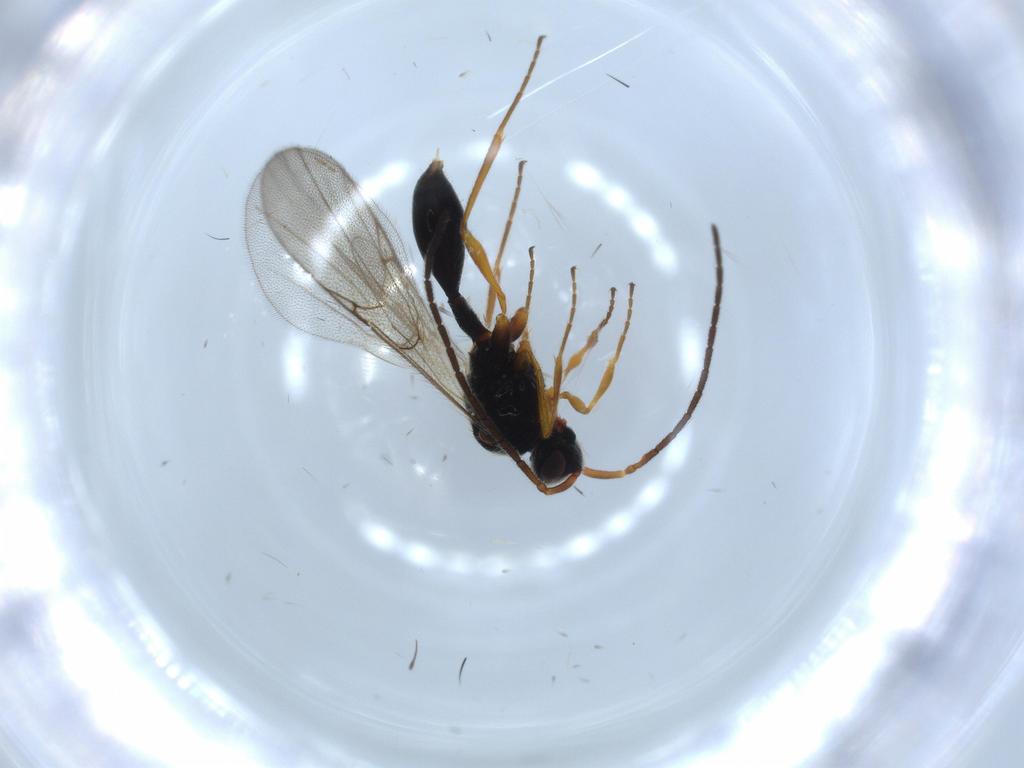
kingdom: Animalia
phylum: Arthropoda
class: Insecta
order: Hymenoptera
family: Diapriidae
